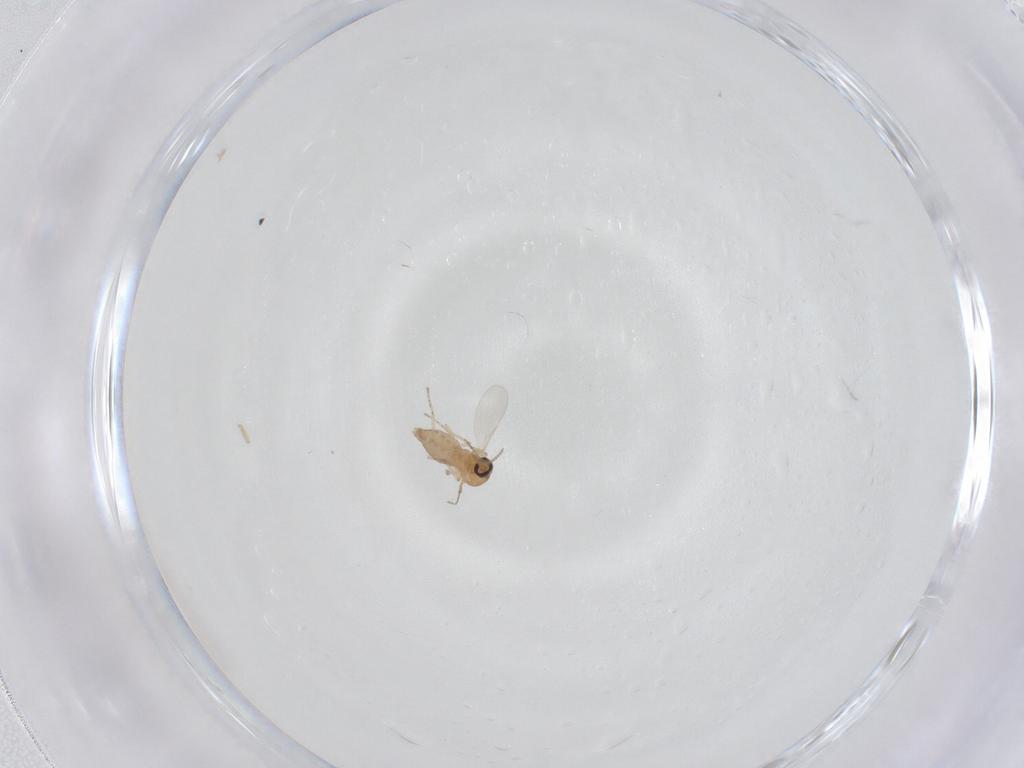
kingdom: Animalia
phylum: Arthropoda
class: Insecta
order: Diptera
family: Ceratopogonidae
